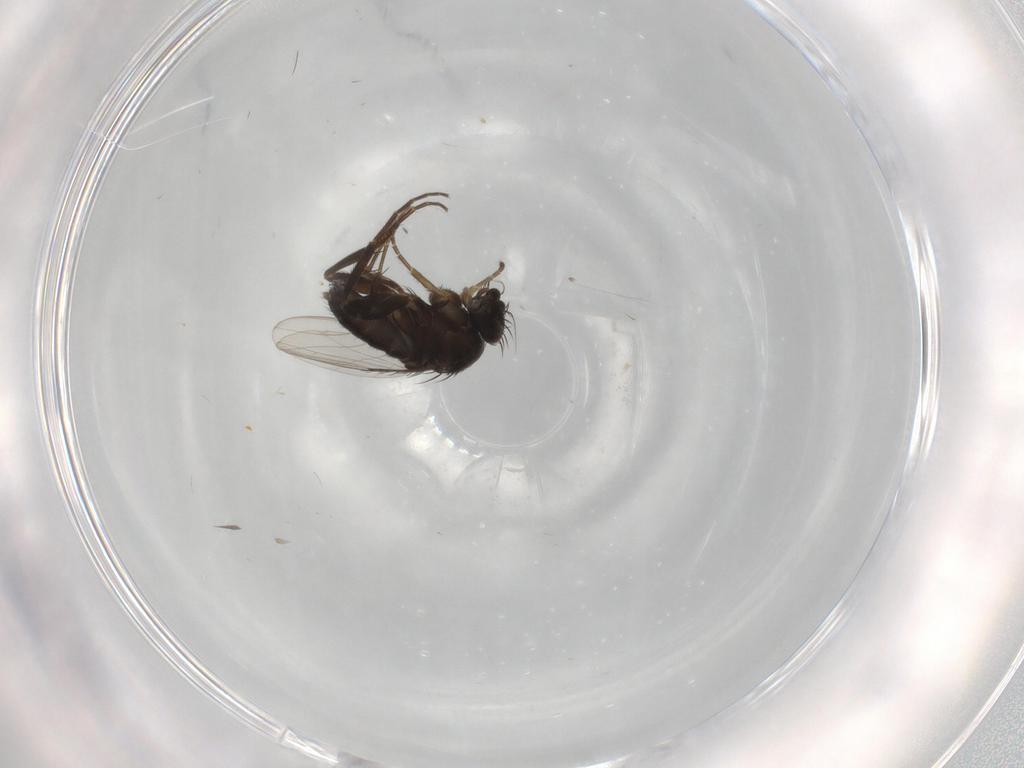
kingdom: Animalia
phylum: Arthropoda
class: Insecta
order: Diptera
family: Phoridae
